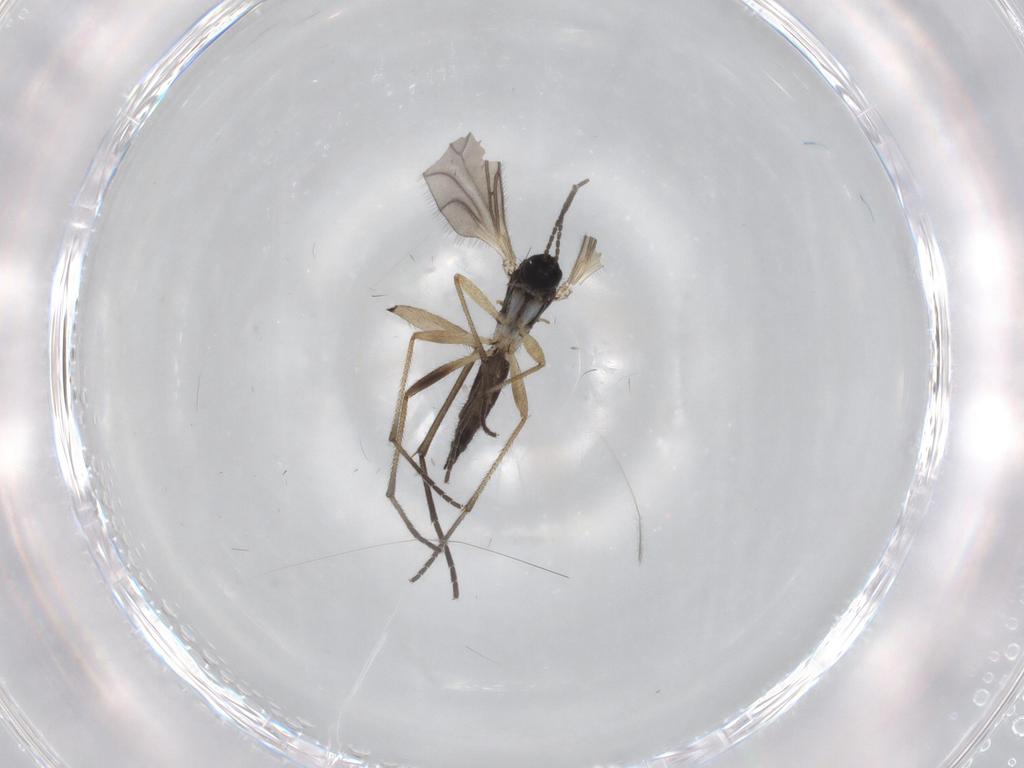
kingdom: Animalia
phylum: Arthropoda
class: Insecta
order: Diptera
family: Sciaridae
